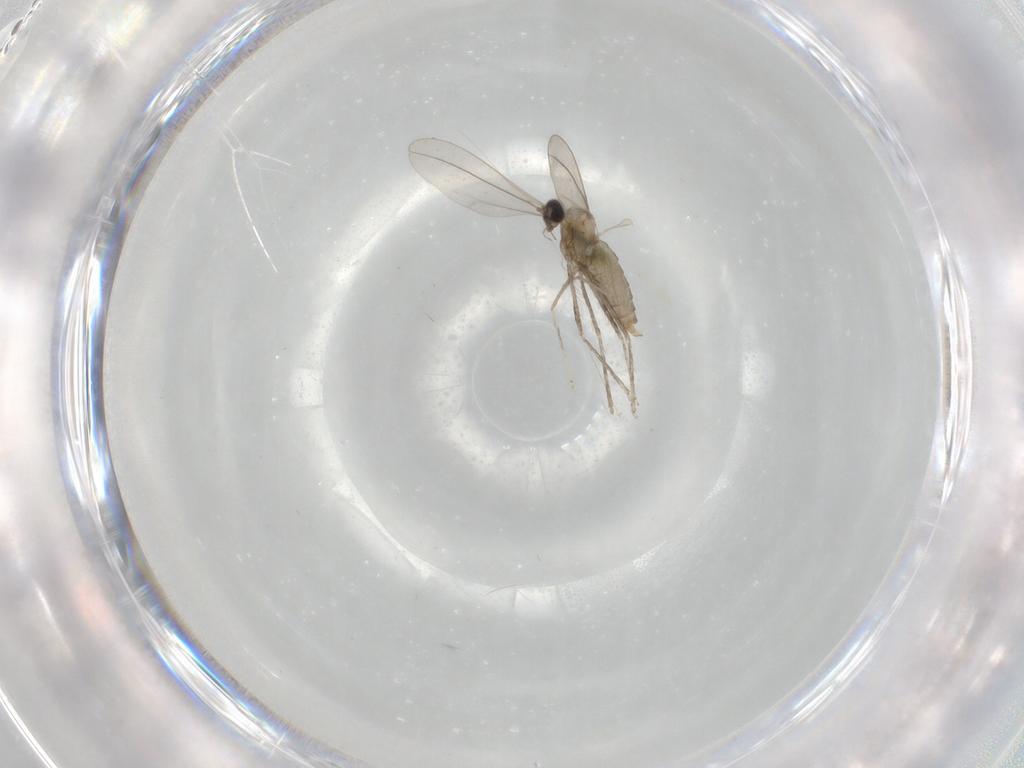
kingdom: Animalia
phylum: Arthropoda
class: Insecta
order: Diptera
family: Cecidomyiidae
